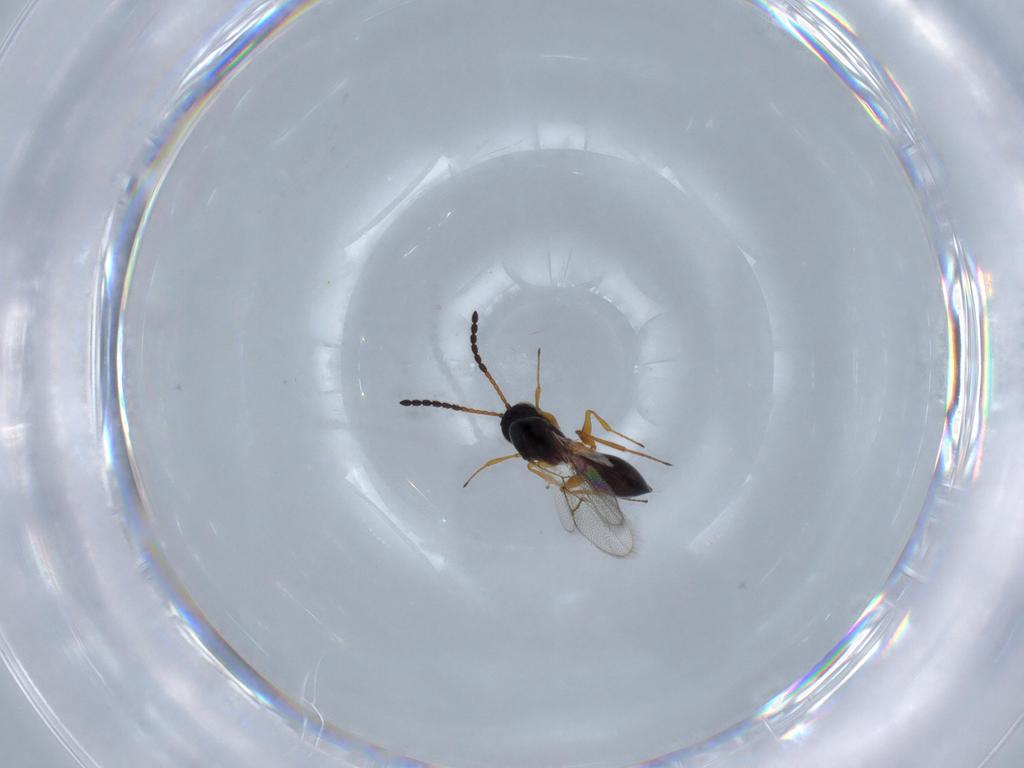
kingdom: Animalia
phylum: Arthropoda
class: Insecta
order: Hymenoptera
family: Figitidae
